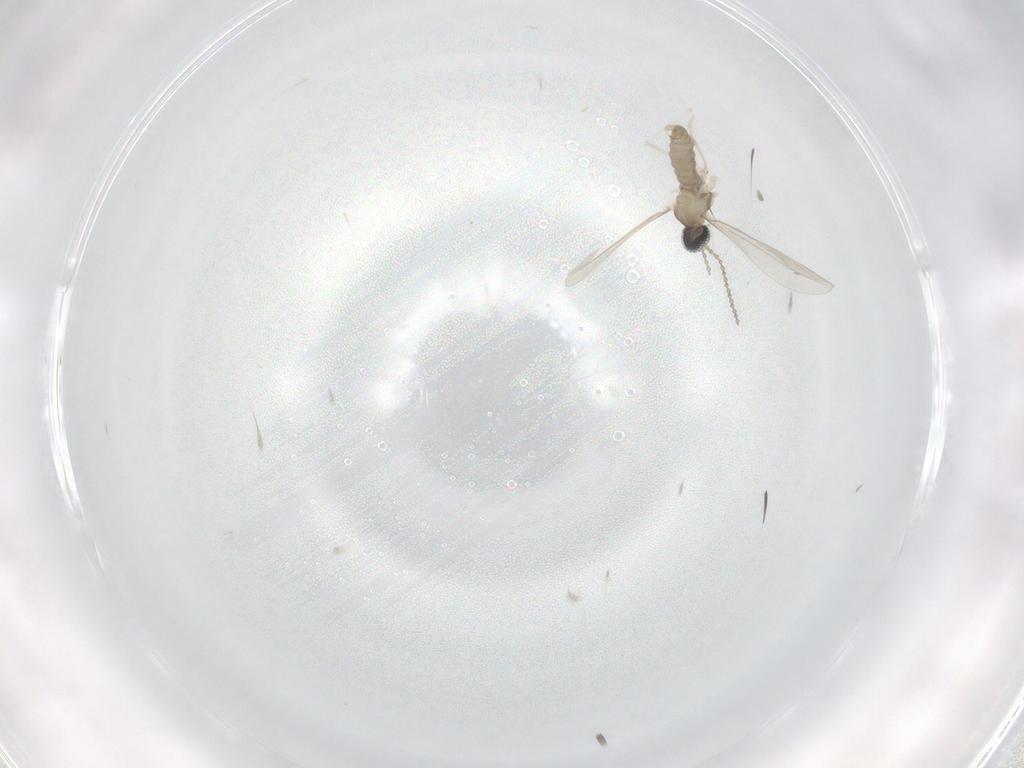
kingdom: Animalia
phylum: Arthropoda
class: Insecta
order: Diptera
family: Cecidomyiidae
